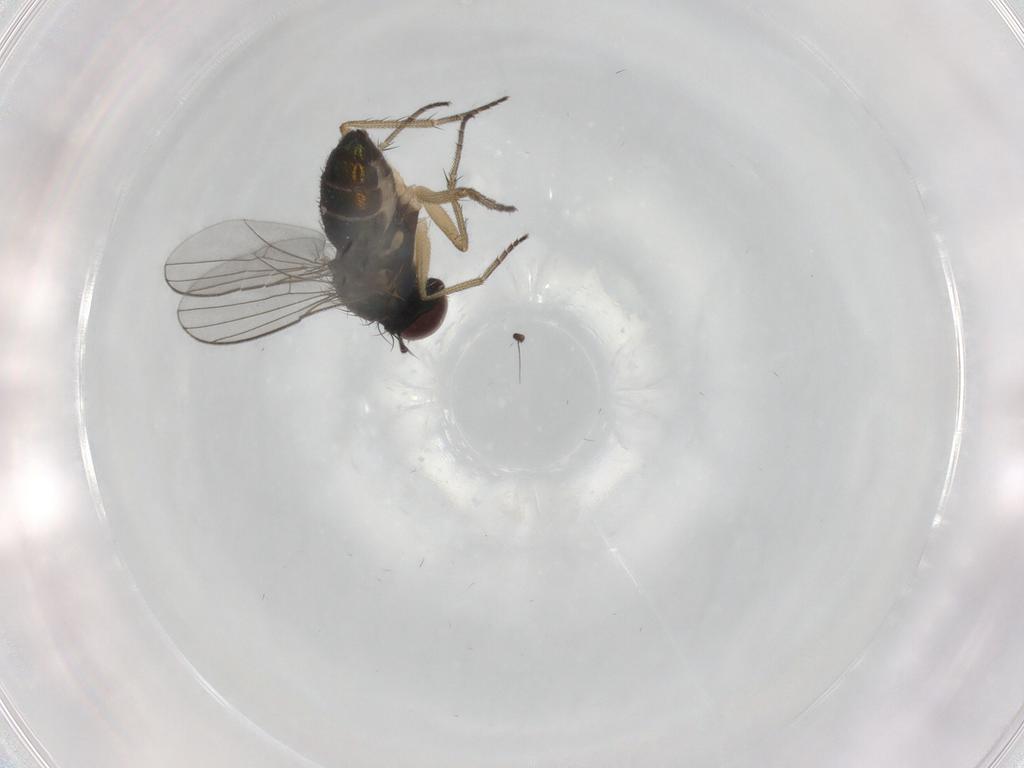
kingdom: Animalia
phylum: Arthropoda
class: Insecta
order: Diptera
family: Dolichopodidae
